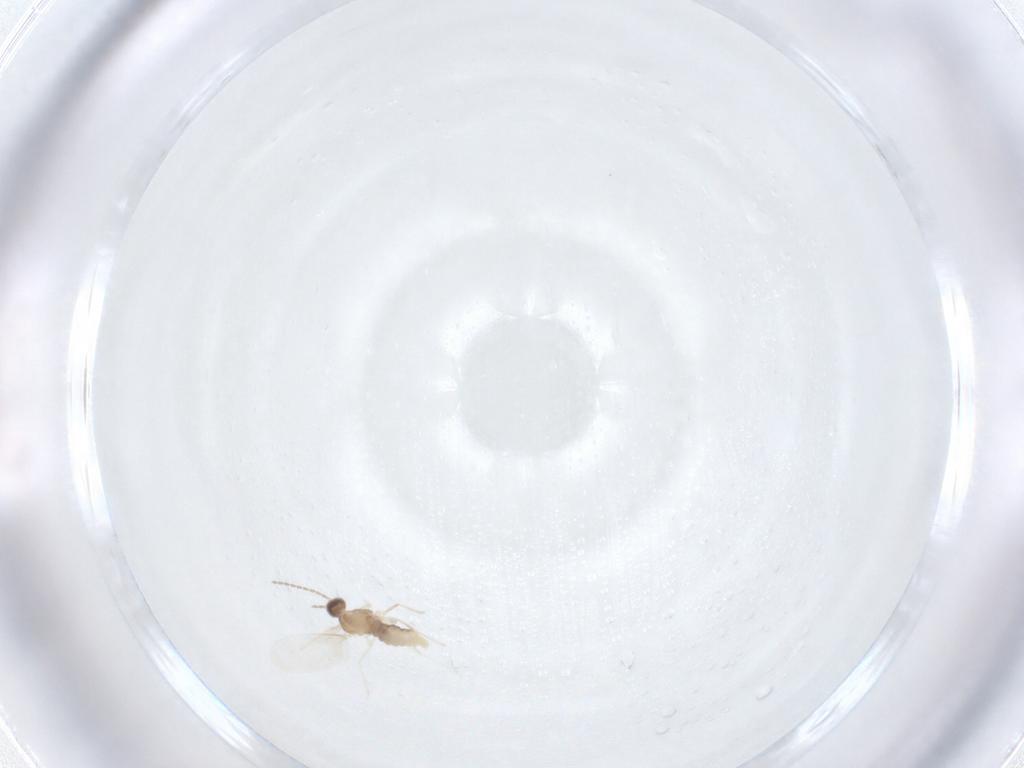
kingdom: Animalia
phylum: Arthropoda
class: Insecta
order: Diptera
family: Cecidomyiidae
